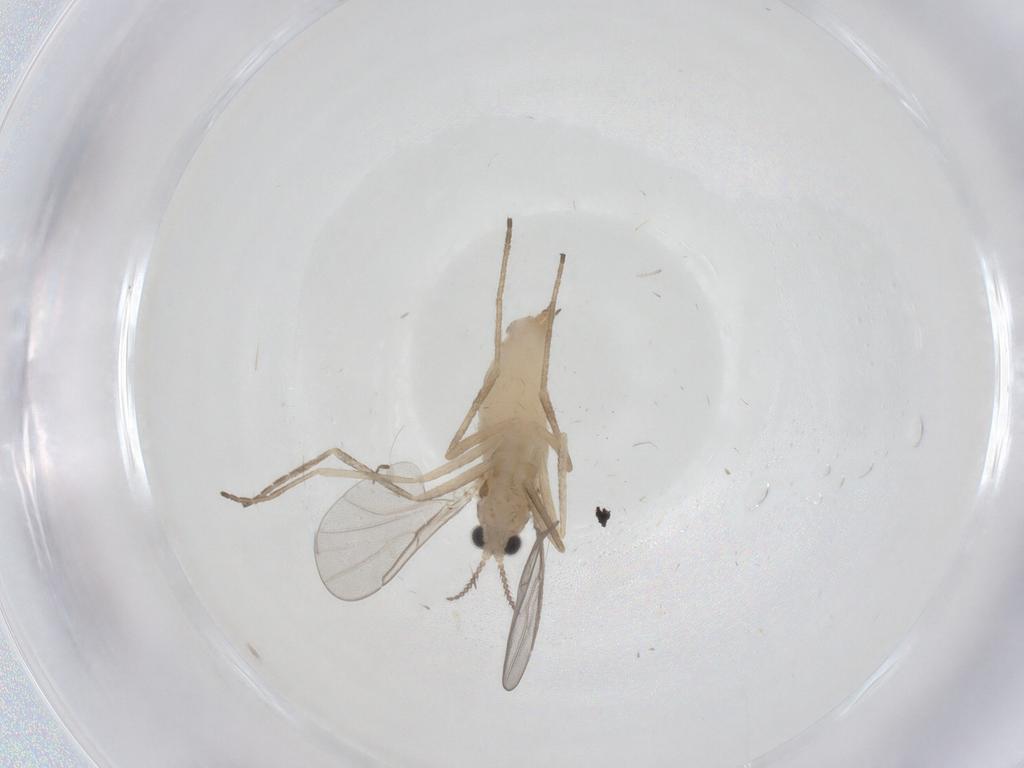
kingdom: Animalia
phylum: Arthropoda
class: Insecta
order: Diptera
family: Cecidomyiidae
